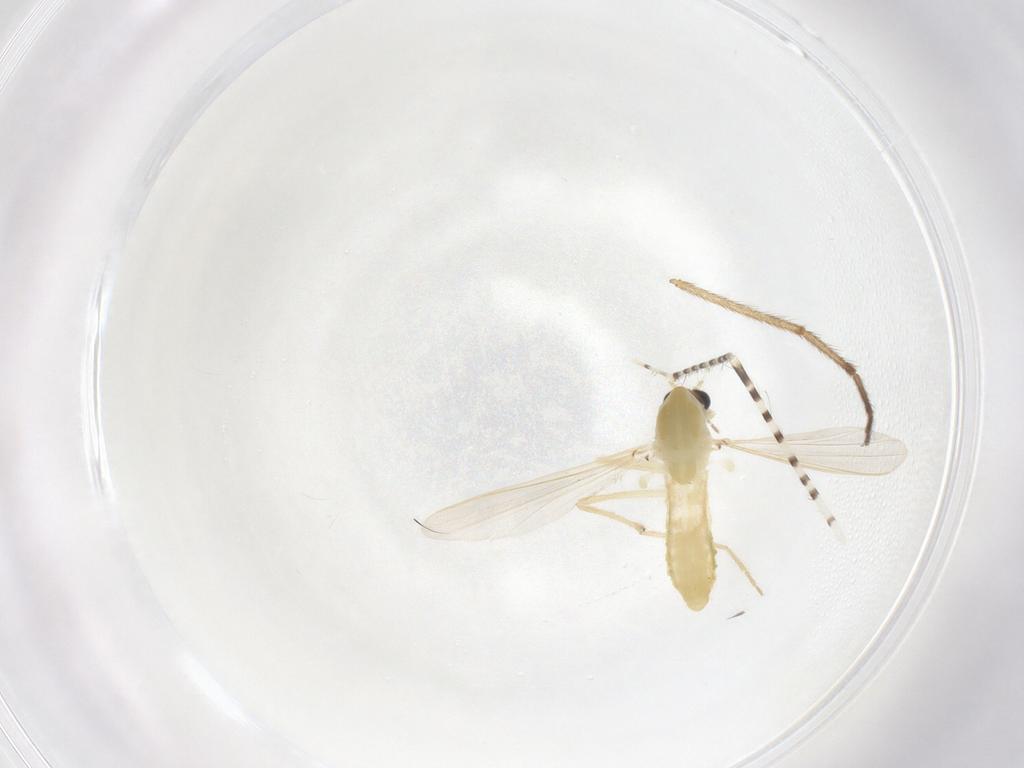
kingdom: Animalia
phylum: Arthropoda
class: Insecta
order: Diptera
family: Chironomidae
